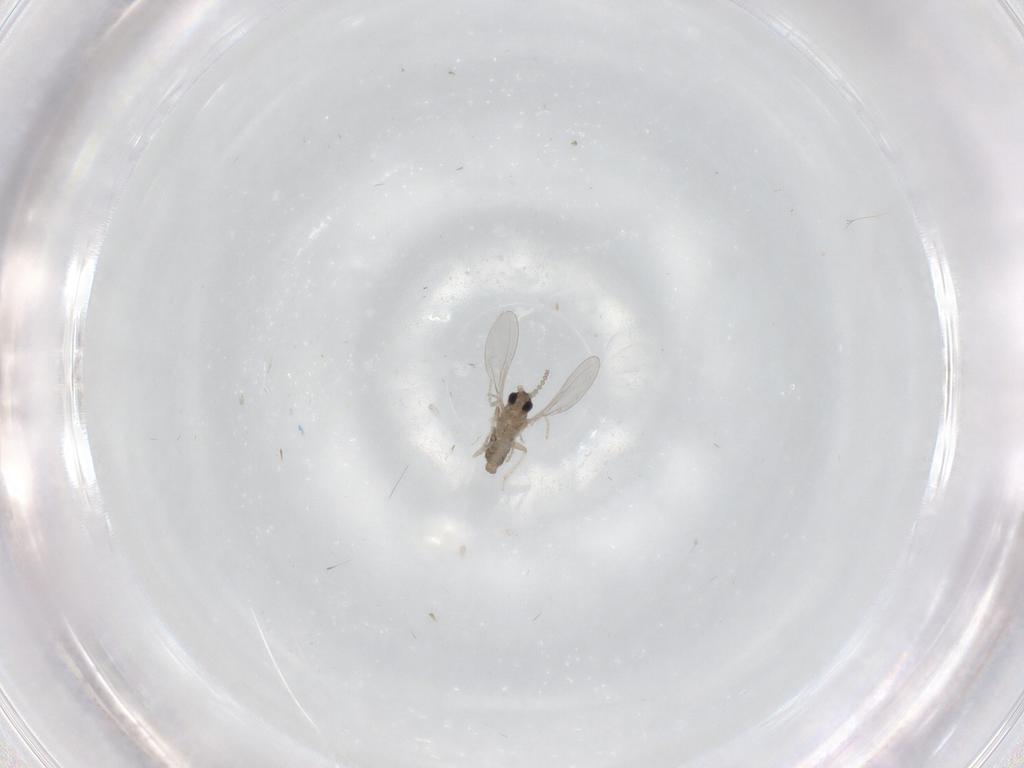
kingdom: Animalia
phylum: Arthropoda
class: Insecta
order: Diptera
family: Cecidomyiidae
